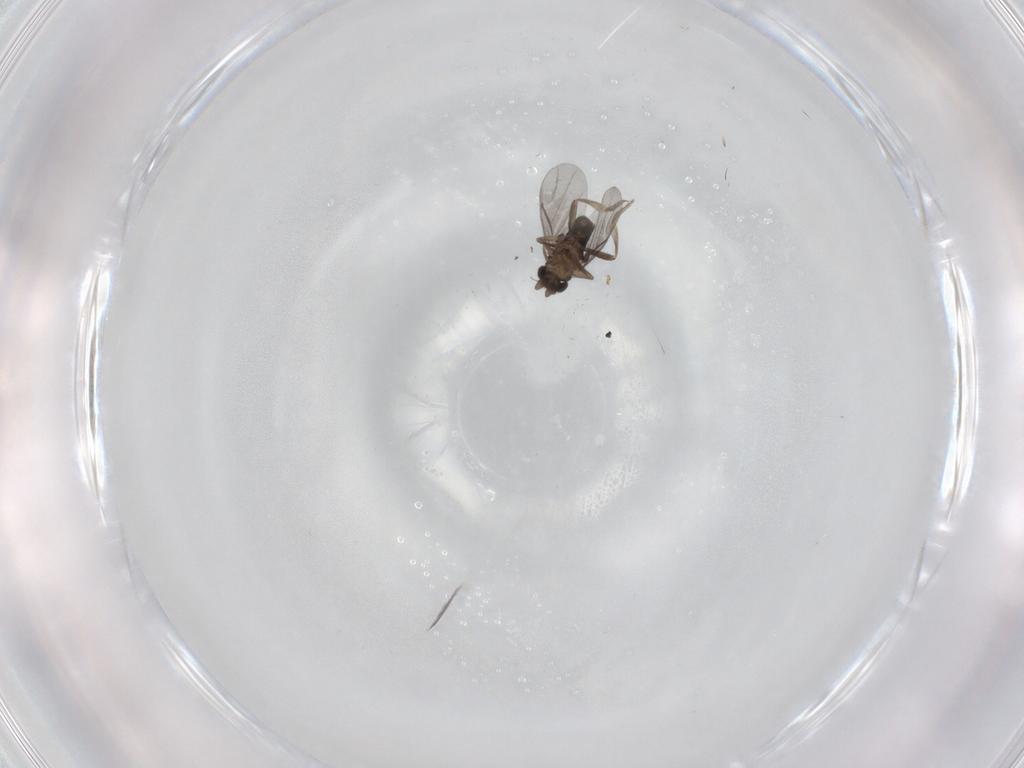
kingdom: Animalia
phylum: Arthropoda
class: Insecta
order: Diptera
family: Chironomidae
